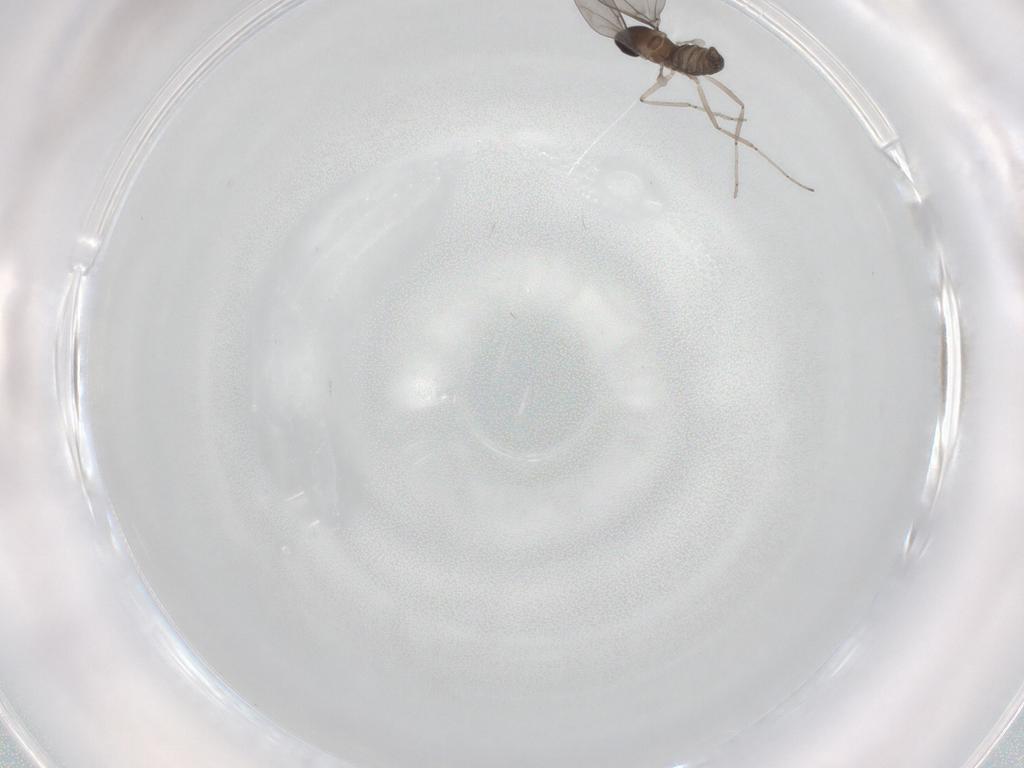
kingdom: Animalia
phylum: Arthropoda
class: Insecta
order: Diptera
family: Cecidomyiidae
